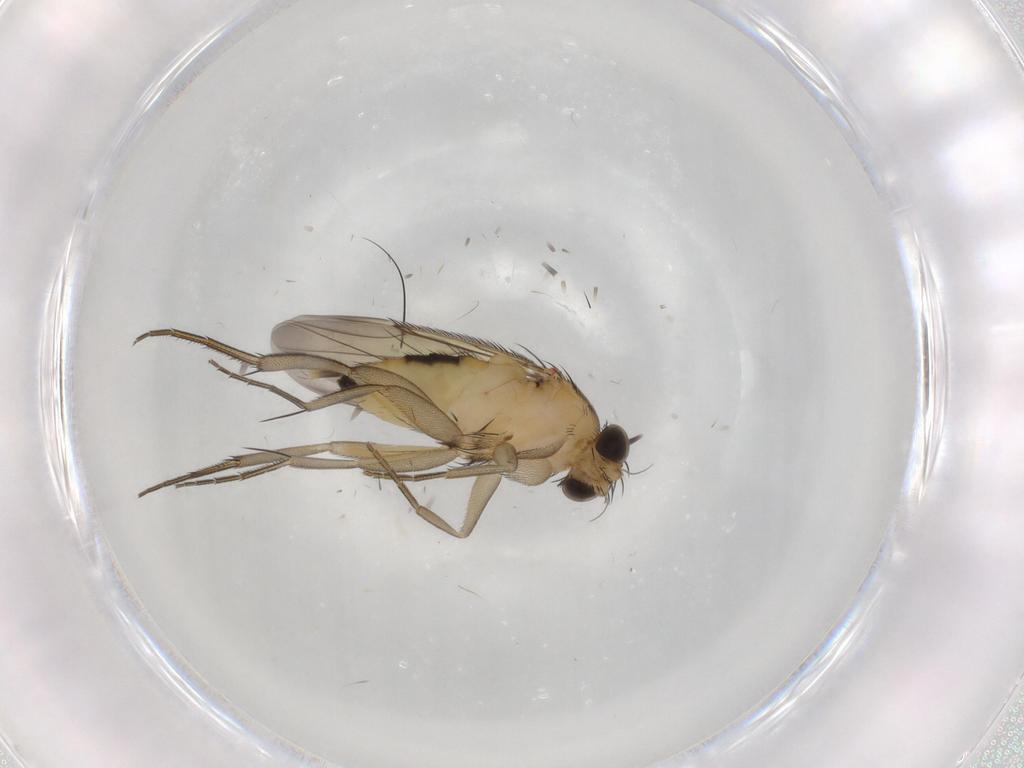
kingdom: Animalia
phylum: Arthropoda
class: Insecta
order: Diptera
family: Phoridae
